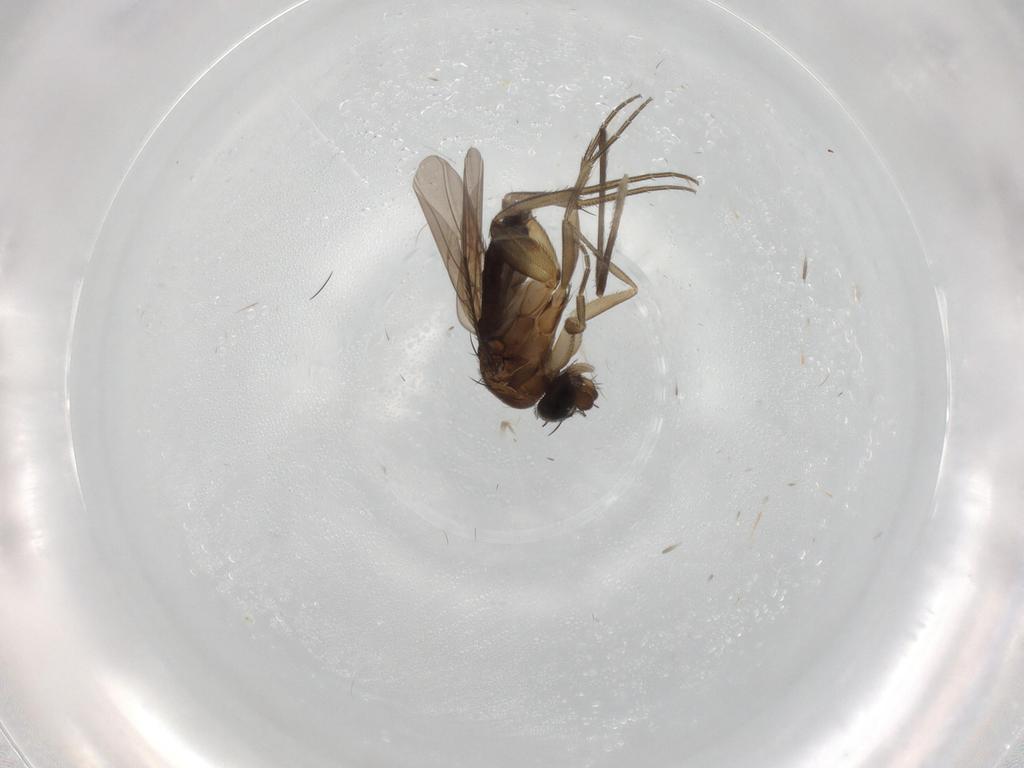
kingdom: Animalia
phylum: Arthropoda
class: Insecta
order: Diptera
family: Phoridae
